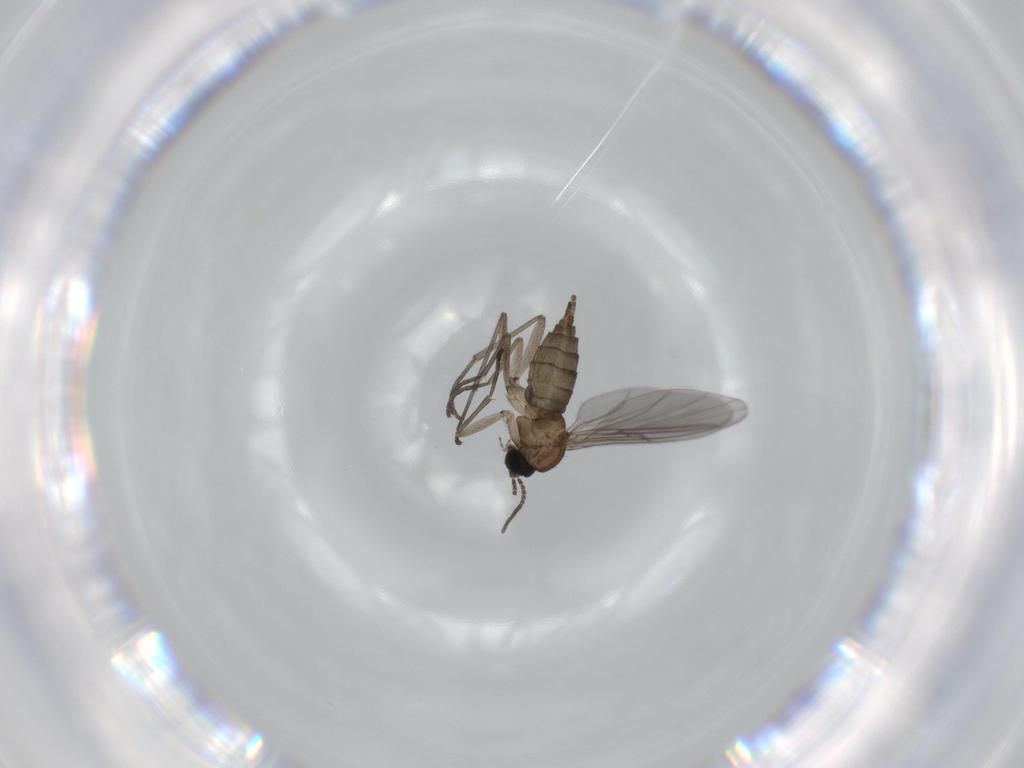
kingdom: Animalia
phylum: Arthropoda
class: Insecta
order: Diptera
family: Sciaridae
